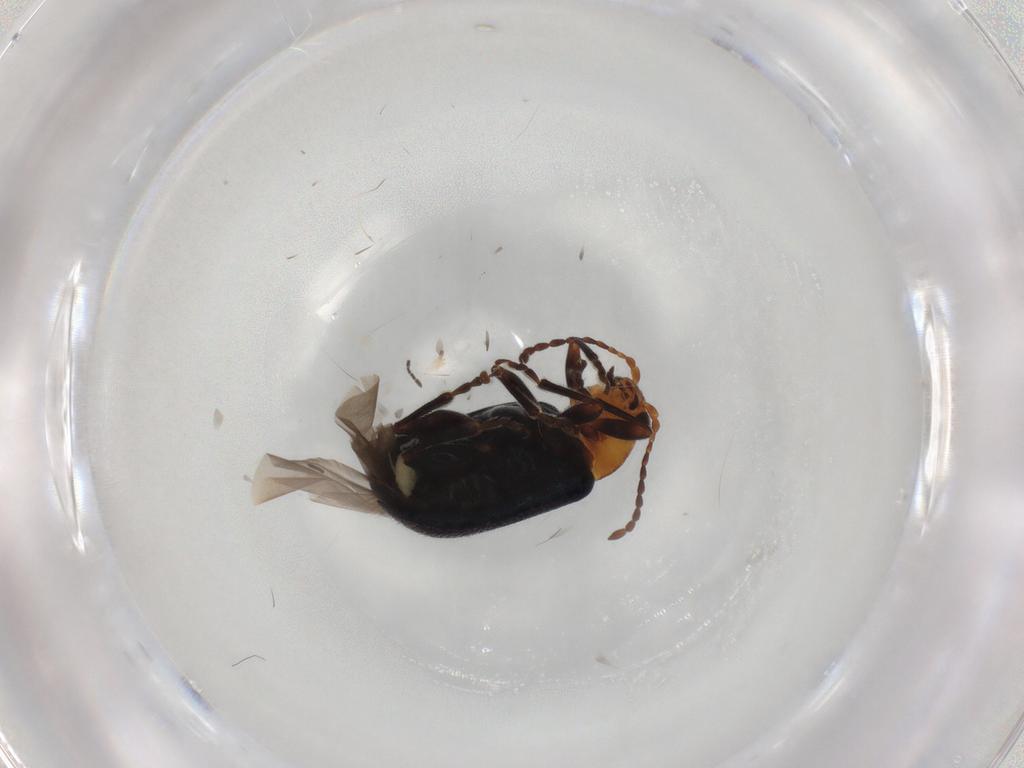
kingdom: Animalia
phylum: Arthropoda
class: Insecta
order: Coleoptera
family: Chrysomelidae
